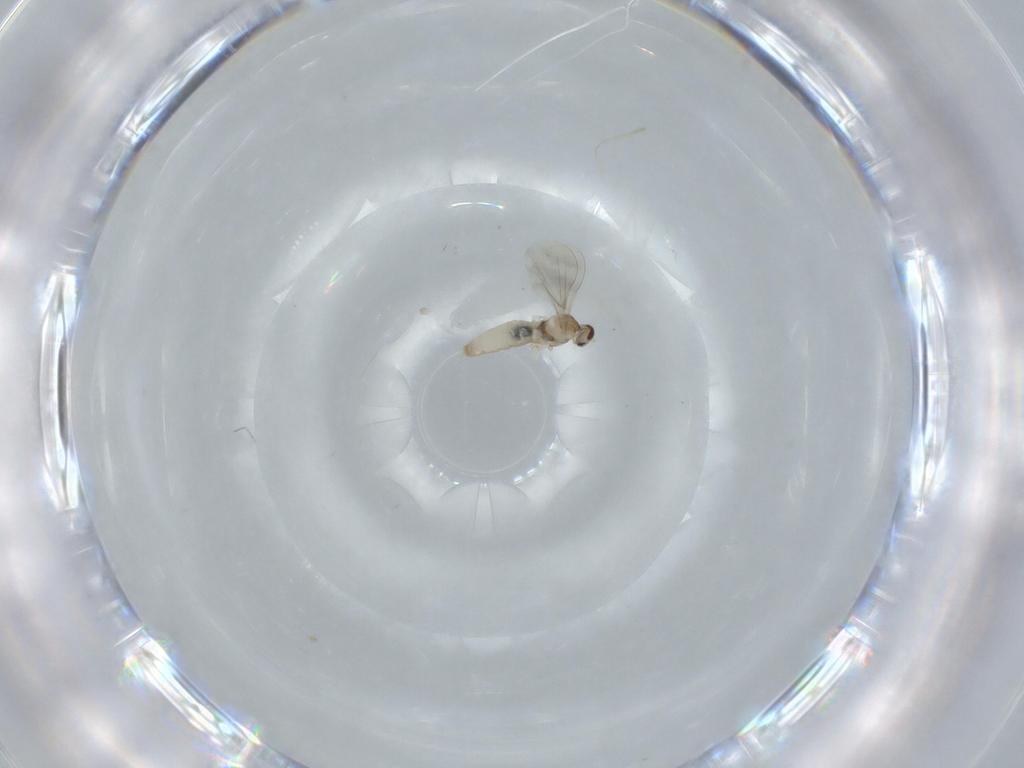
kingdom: Animalia
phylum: Arthropoda
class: Insecta
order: Diptera
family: Cecidomyiidae
